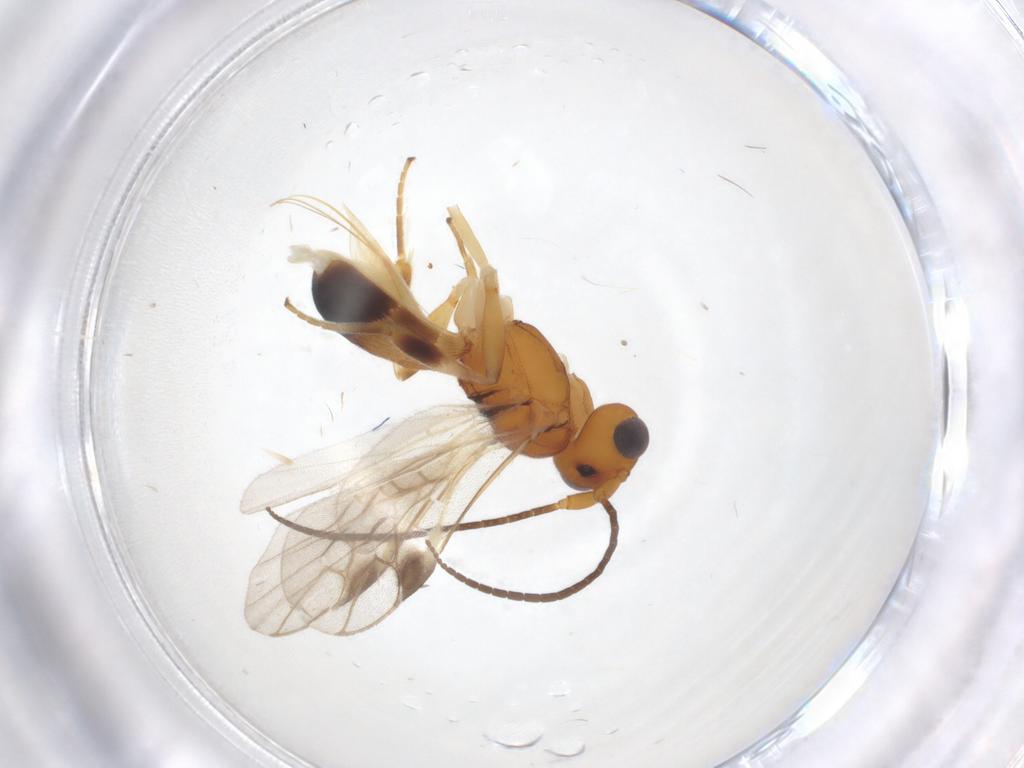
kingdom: Animalia
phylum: Arthropoda
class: Insecta
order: Hymenoptera
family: Braconidae
